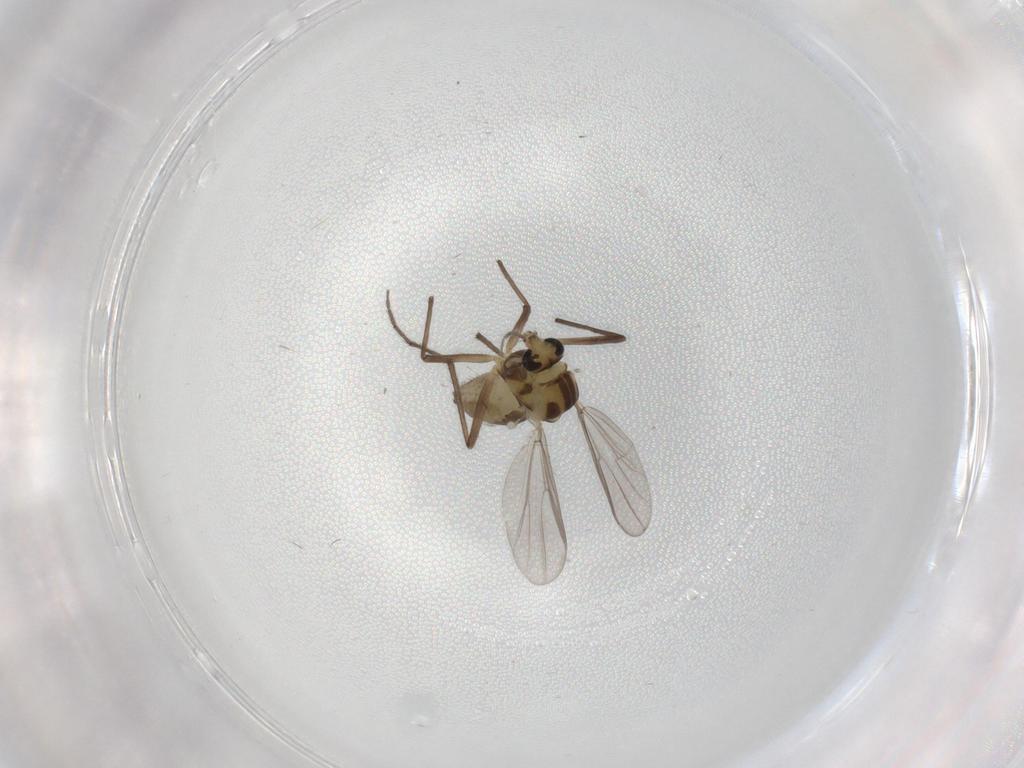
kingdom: Animalia
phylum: Arthropoda
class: Insecta
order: Diptera
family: Chironomidae
